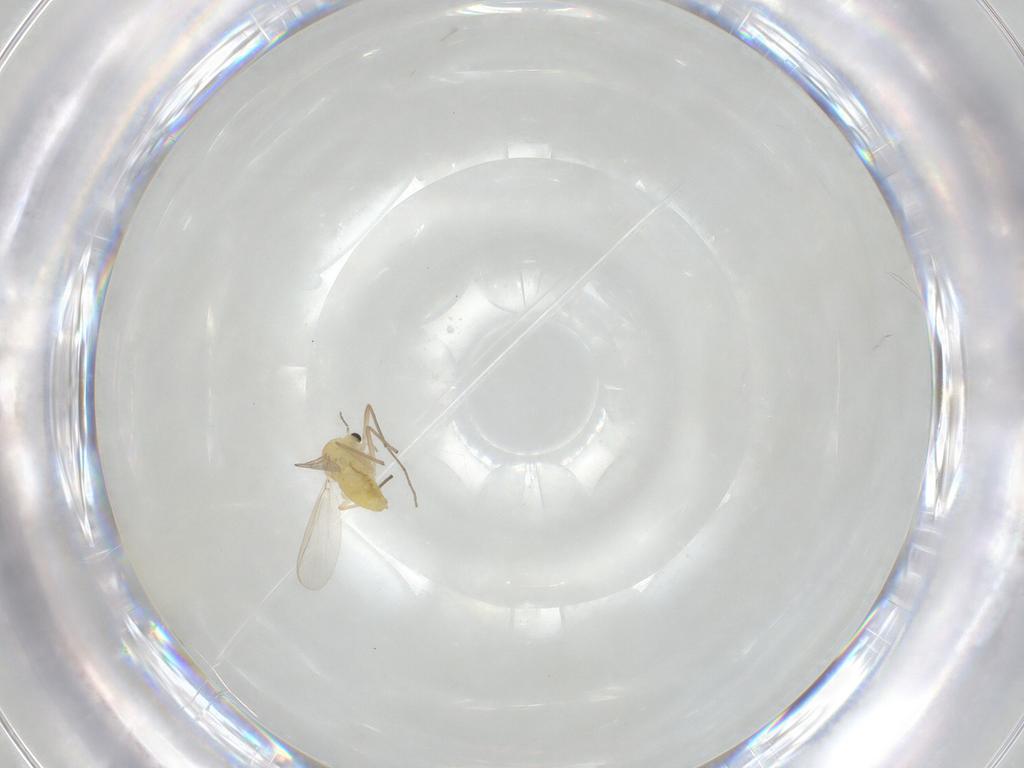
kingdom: Animalia
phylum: Arthropoda
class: Insecta
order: Diptera
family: Chironomidae
